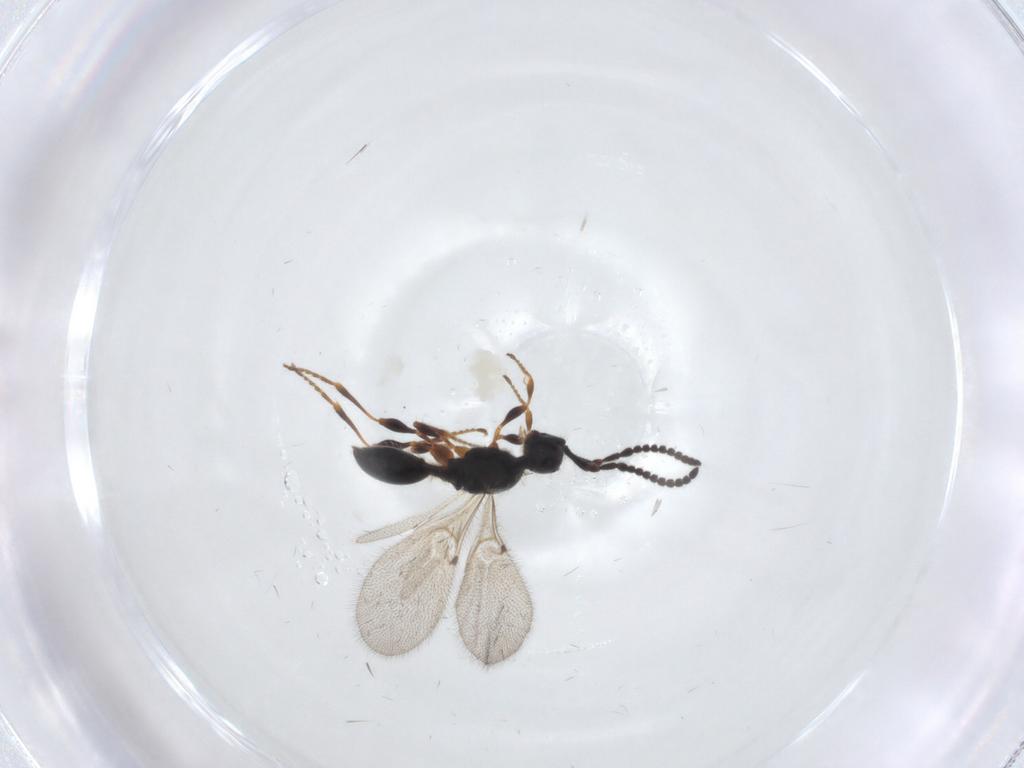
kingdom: Animalia
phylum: Arthropoda
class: Insecta
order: Hymenoptera
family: Diapriidae
